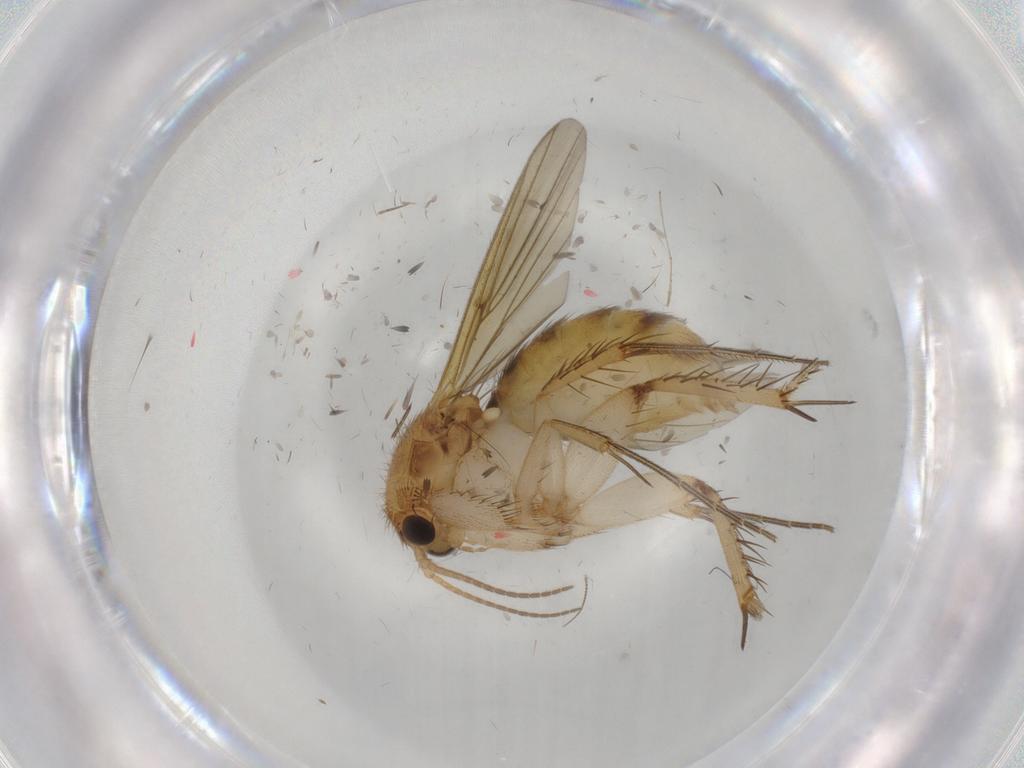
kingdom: Animalia
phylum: Arthropoda
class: Insecta
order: Diptera
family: Mycetophilidae
